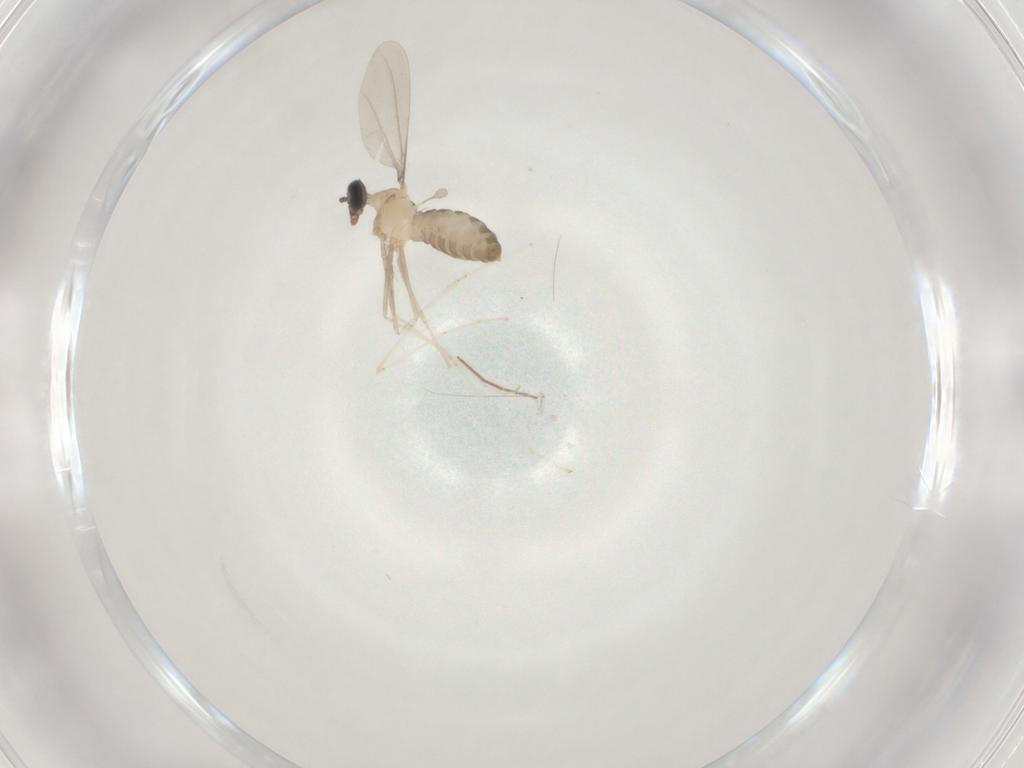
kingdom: Animalia
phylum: Arthropoda
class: Insecta
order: Diptera
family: Cecidomyiidae
